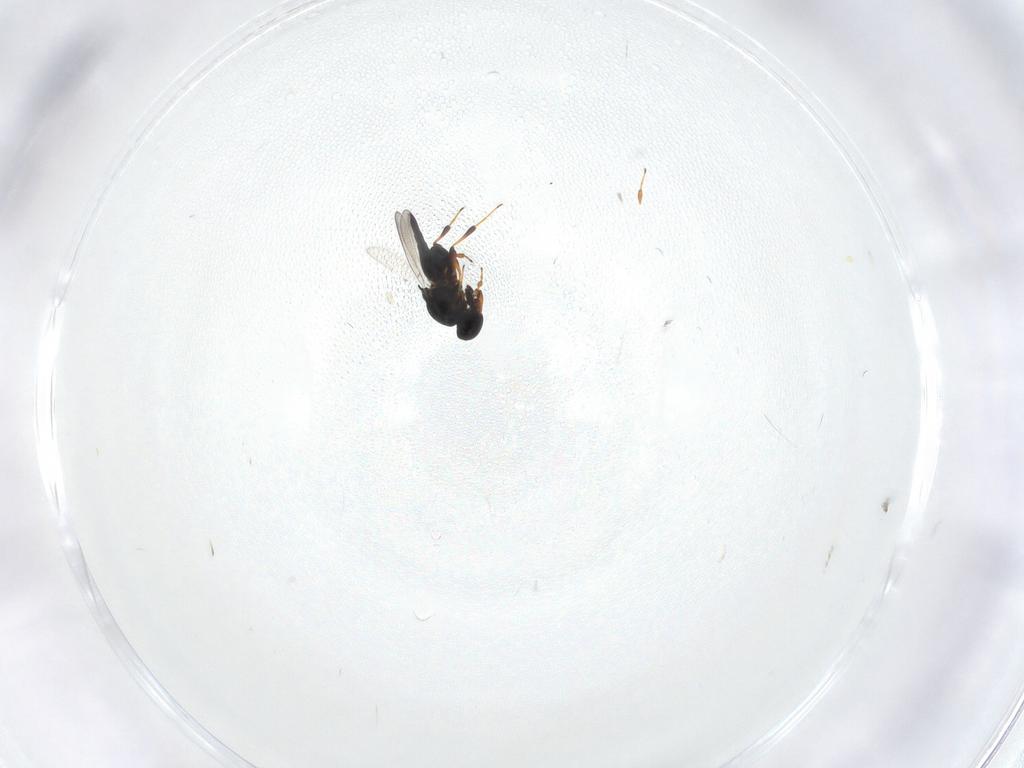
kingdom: Animalia
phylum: Arthropoda
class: Insecta
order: Hymenoptera
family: Platygastridae
